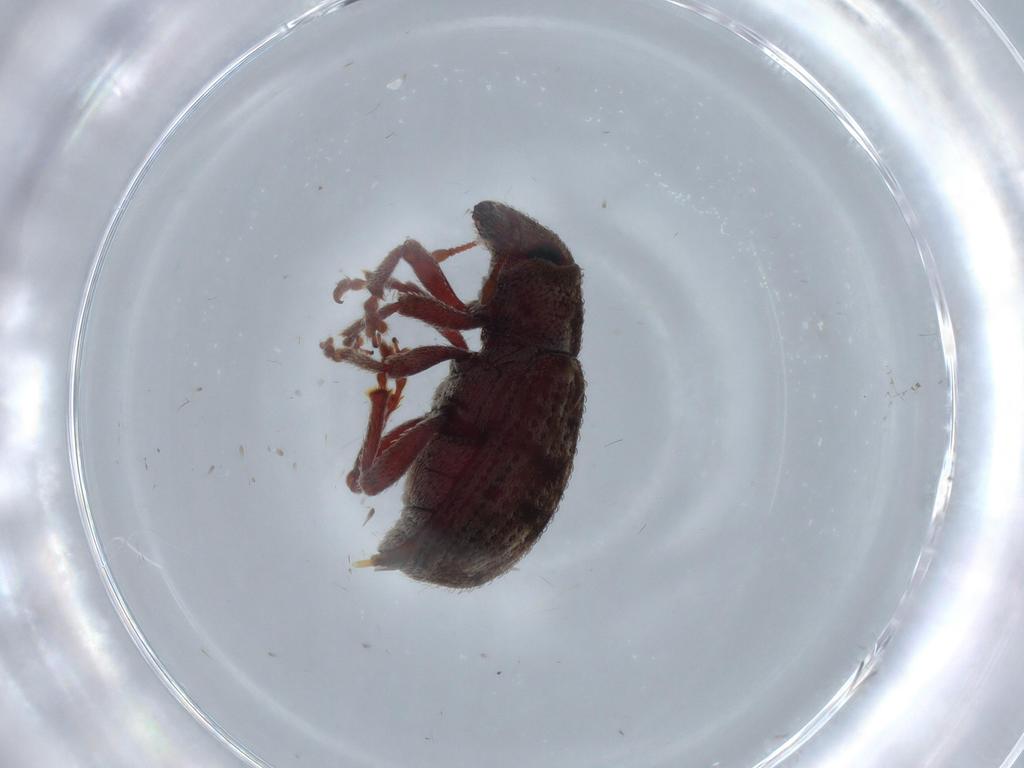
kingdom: Animalia
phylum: Arthropoda
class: Insecta
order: Coleoptera
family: Curculionidae
